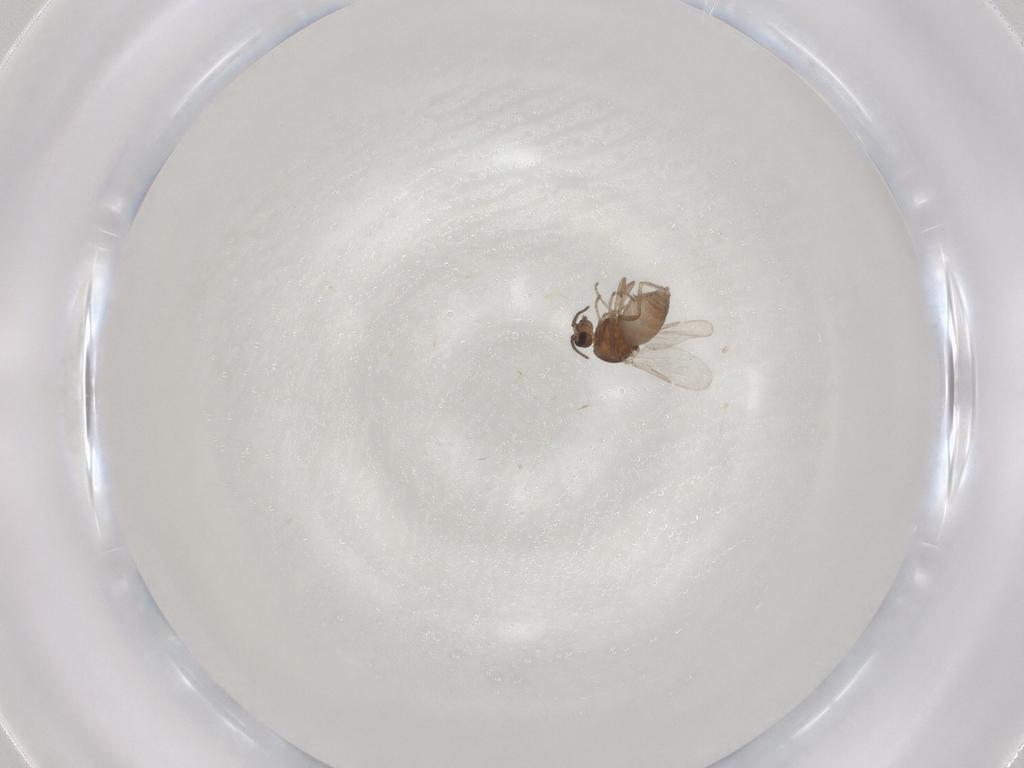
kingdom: Animalia
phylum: Arthropoda
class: Insecta
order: Diptera
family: Ceratopogonidae
